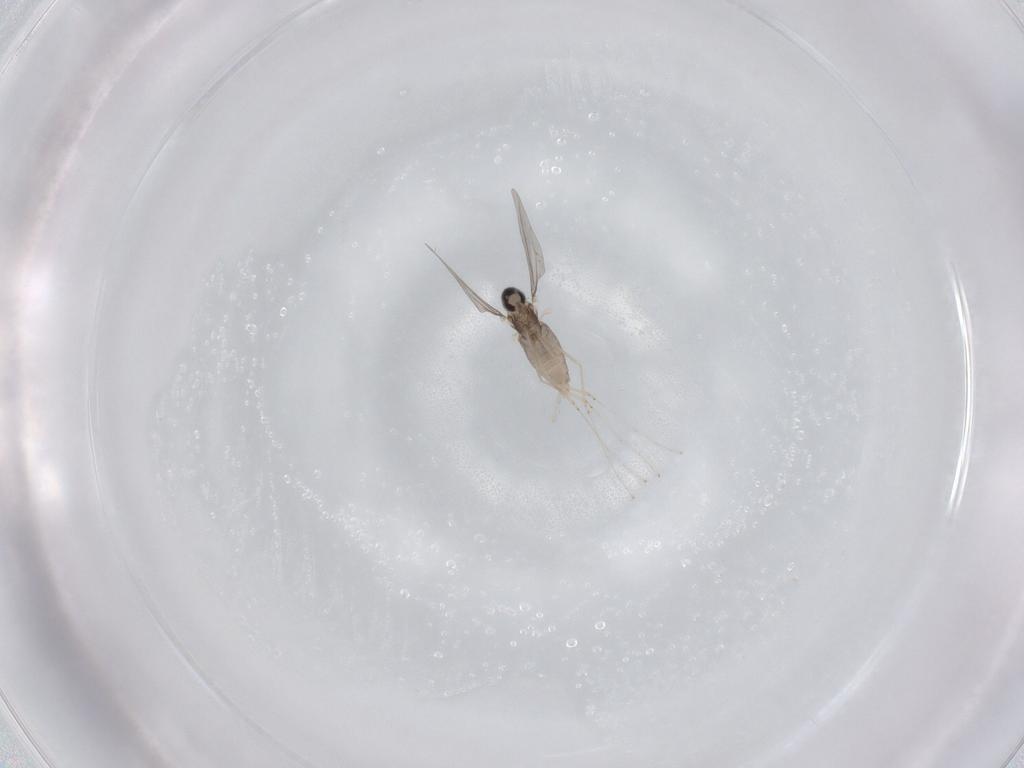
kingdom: Animalia
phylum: Arthropoda
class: Insecta
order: Diptera
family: Cecidomyiidae
